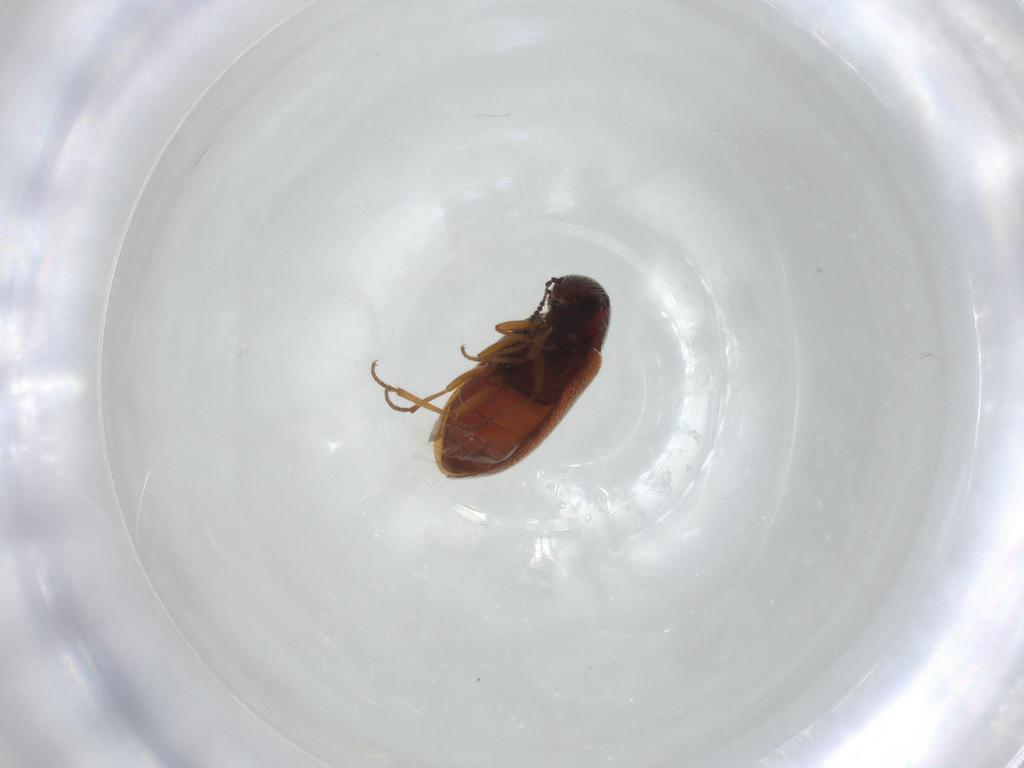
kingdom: Animalia
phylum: Arthropoda
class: Insecta
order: Coleoptera
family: Rhadalidae
